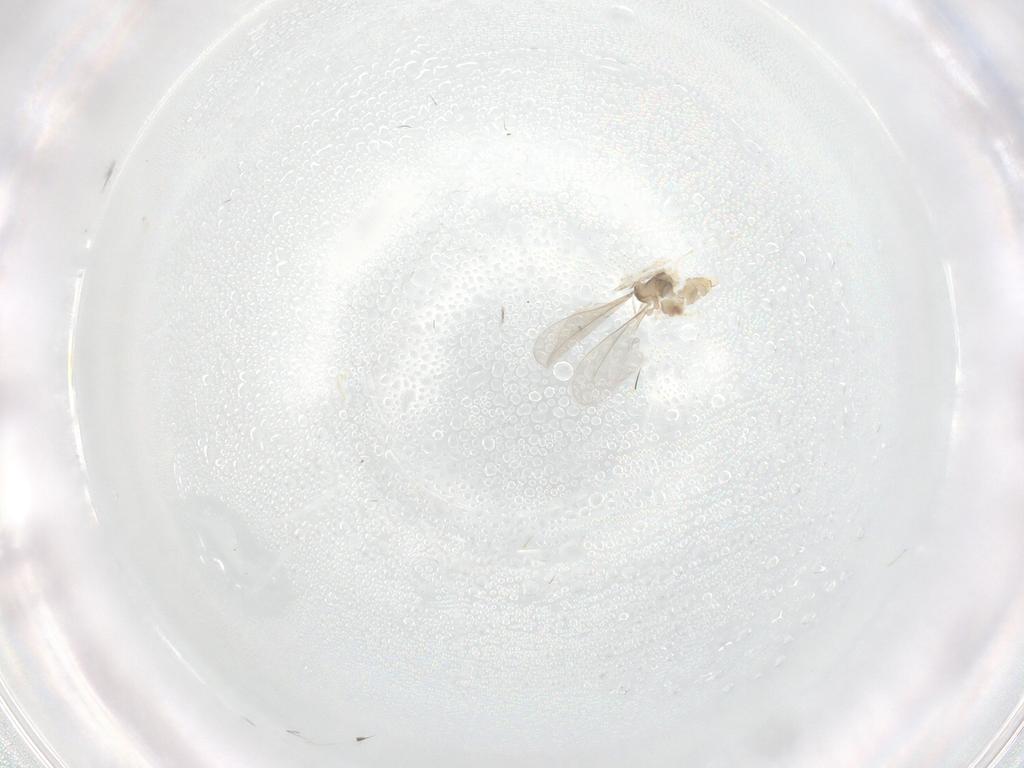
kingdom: Animalia
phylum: Arthropoda
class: Insecta
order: Diptera
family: Cecidomyiidae
